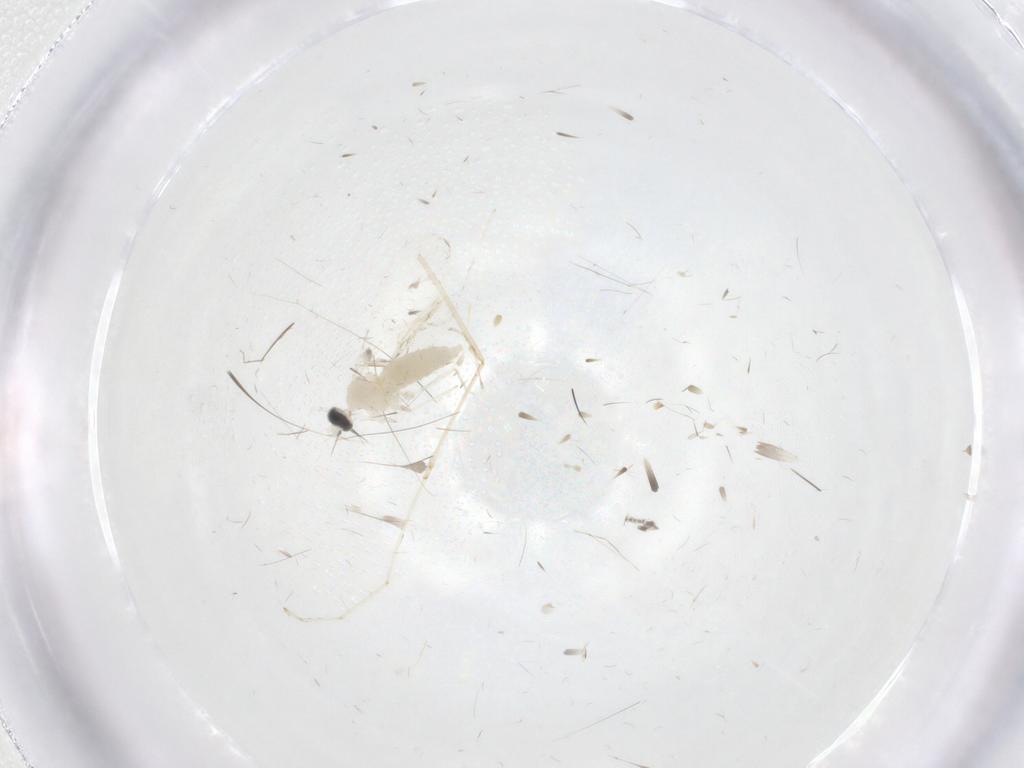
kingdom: Animalia
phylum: Arthropoda
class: Insecta
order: Diptera
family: Cecidomyiidae
